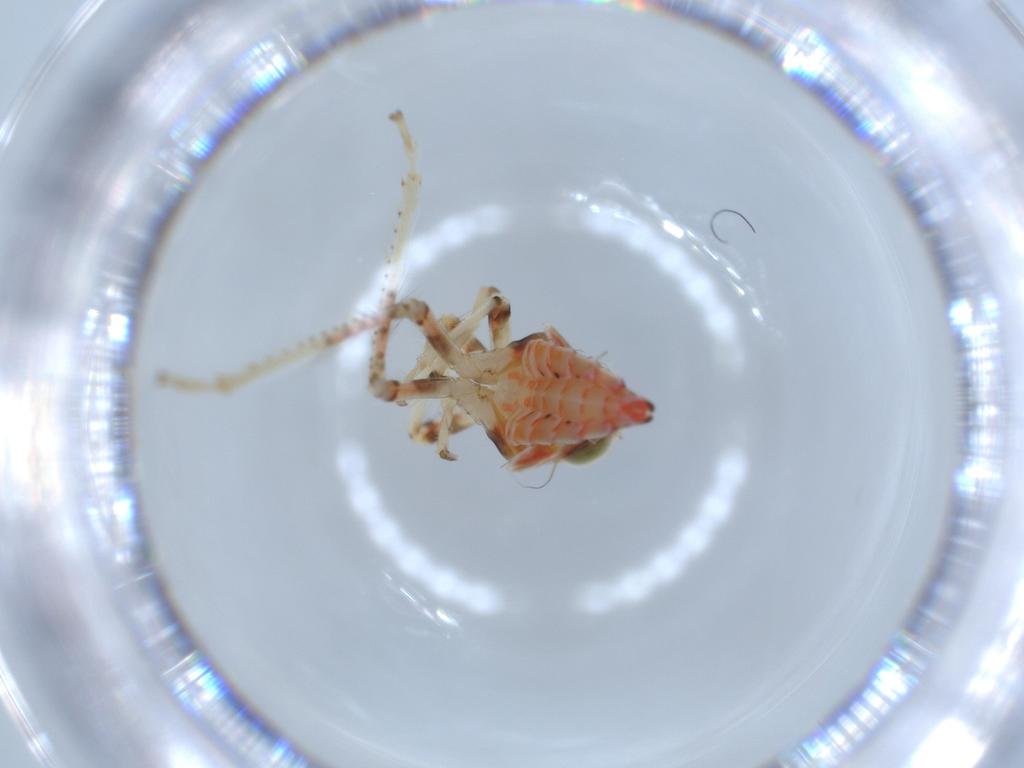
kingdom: Animalia
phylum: Arthropoda
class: Insecta
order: Hemiptera
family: Cicadellidae
